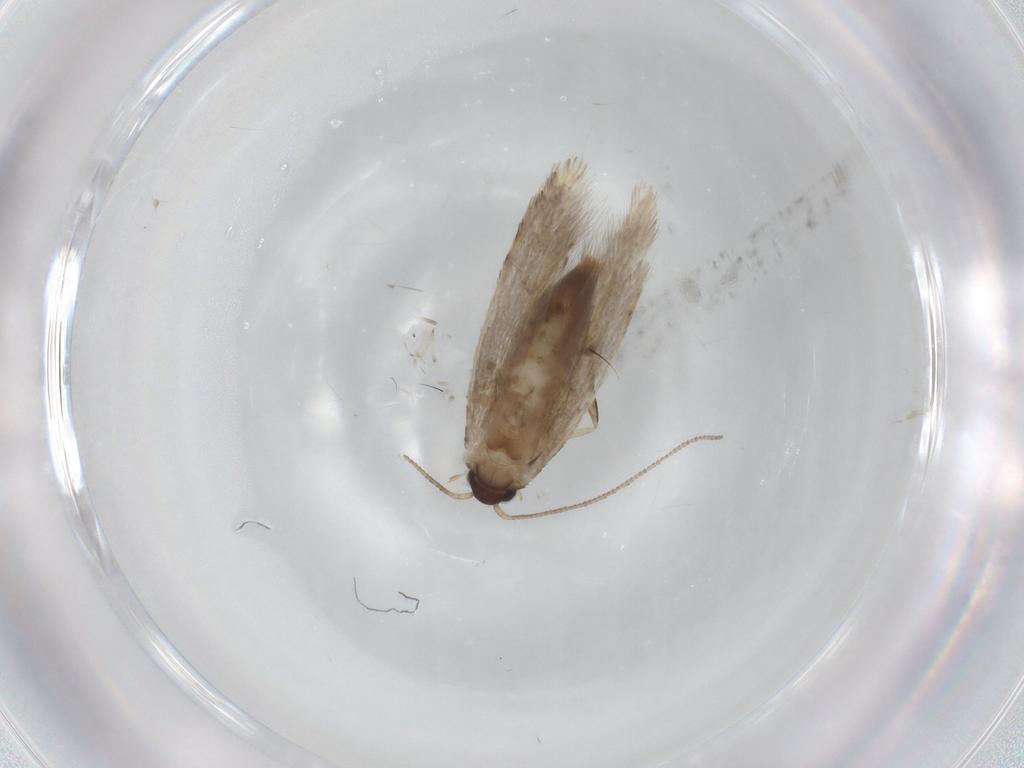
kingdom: Animalia
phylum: Arthropoda
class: Insecta
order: Lepidoptera
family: Tineidae
